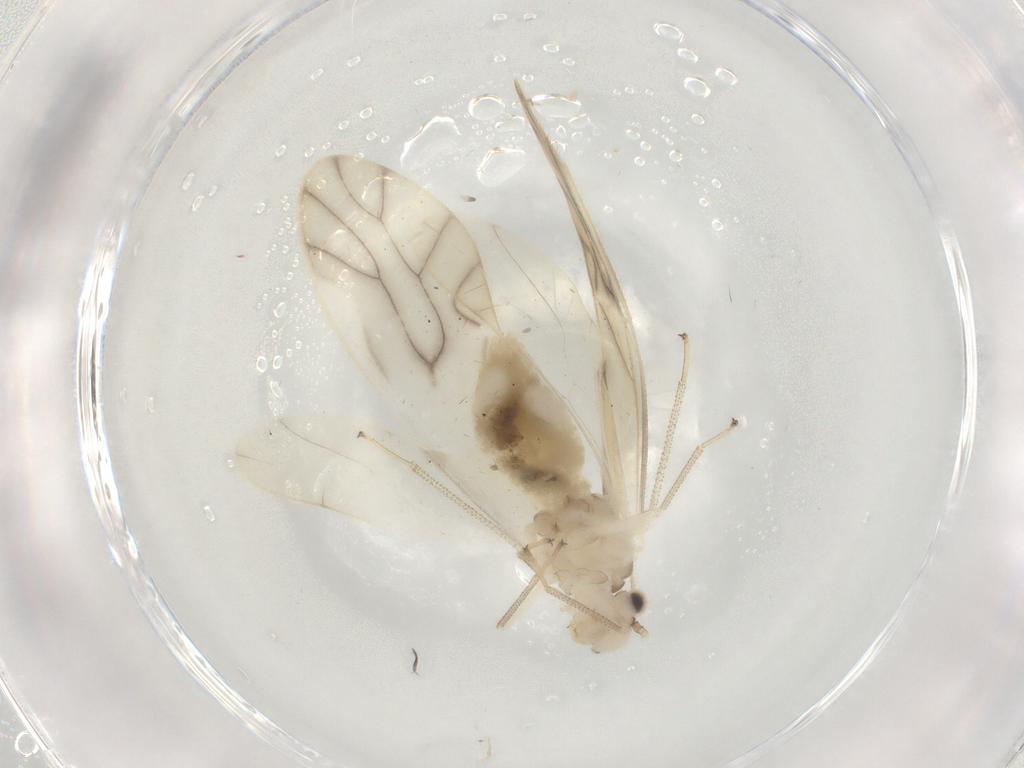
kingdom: Animalia
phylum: Arthropoda
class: Insecta
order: Psocodea
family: Caeciliusidae
